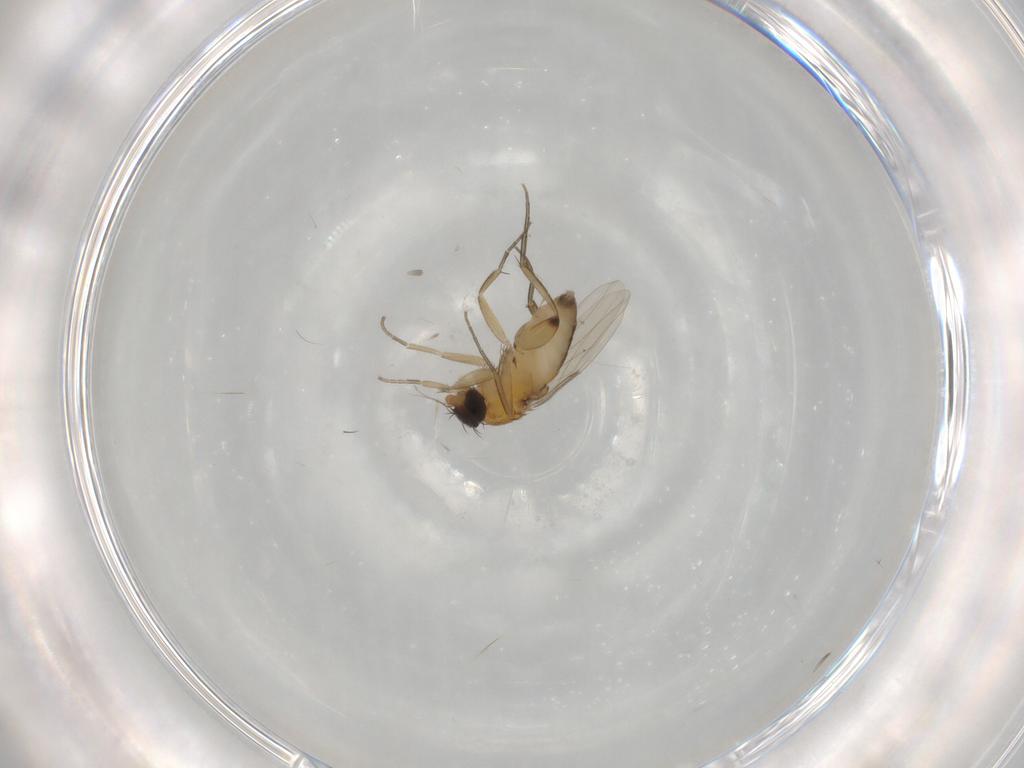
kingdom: Animalia
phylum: Arthropoda
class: Insecta
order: Diptera
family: Phoridae
